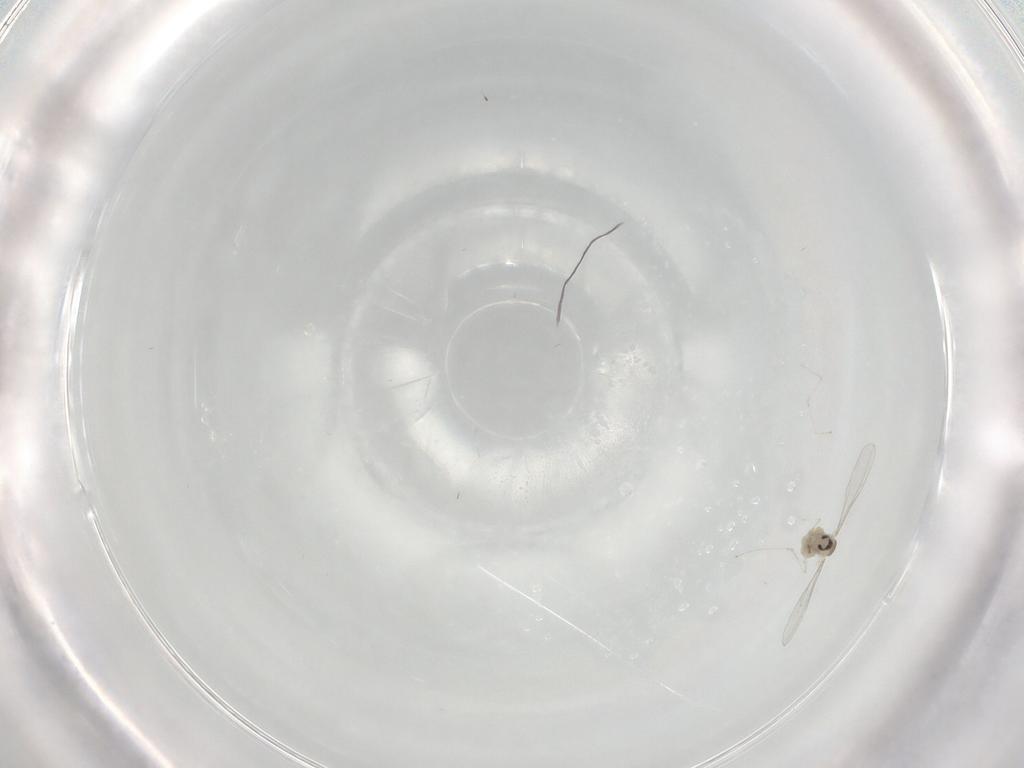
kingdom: Animalia
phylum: Arthropoda
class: Insecta
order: Diptera
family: Cecidomyiidae
